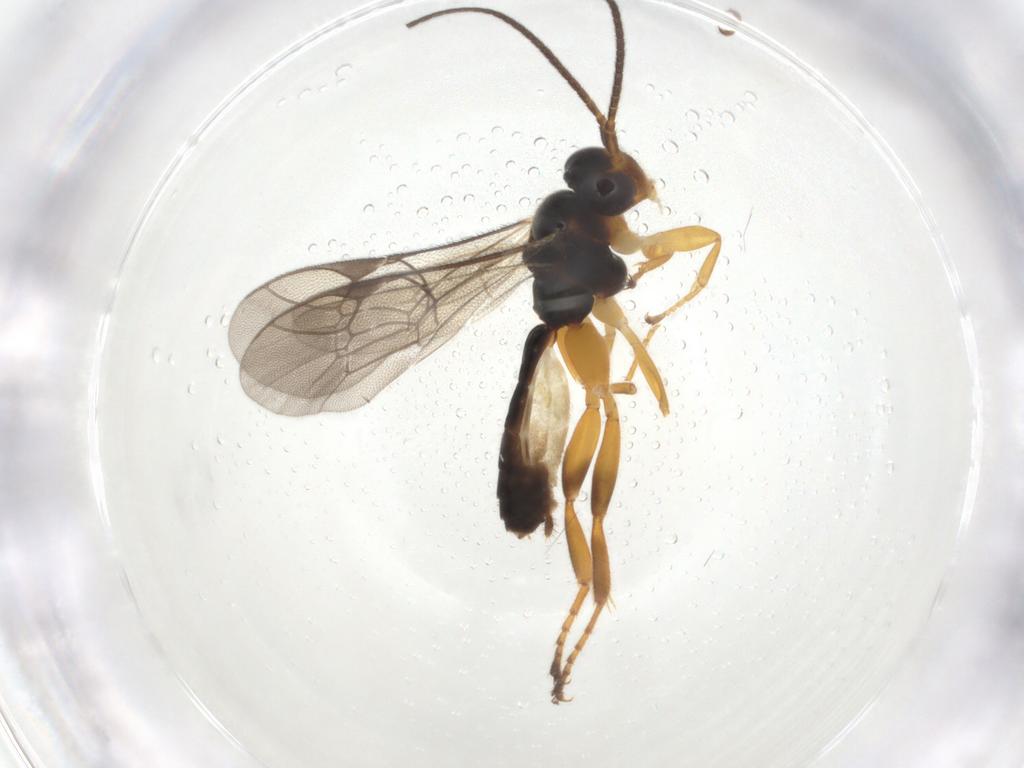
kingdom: Animalia
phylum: Arthropoda
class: Insecta
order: Hymenoptera
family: Ichneumonidae
